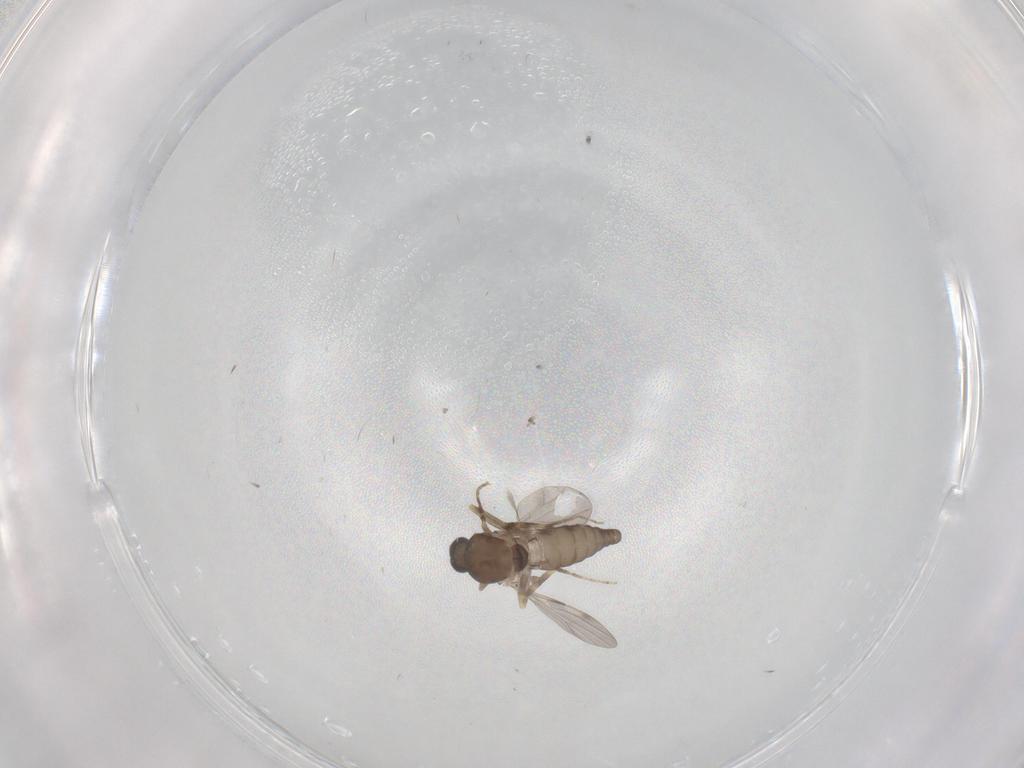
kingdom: Animalia
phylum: Arthropoda
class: Insecta
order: Diptera
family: Ceratopogonidae
